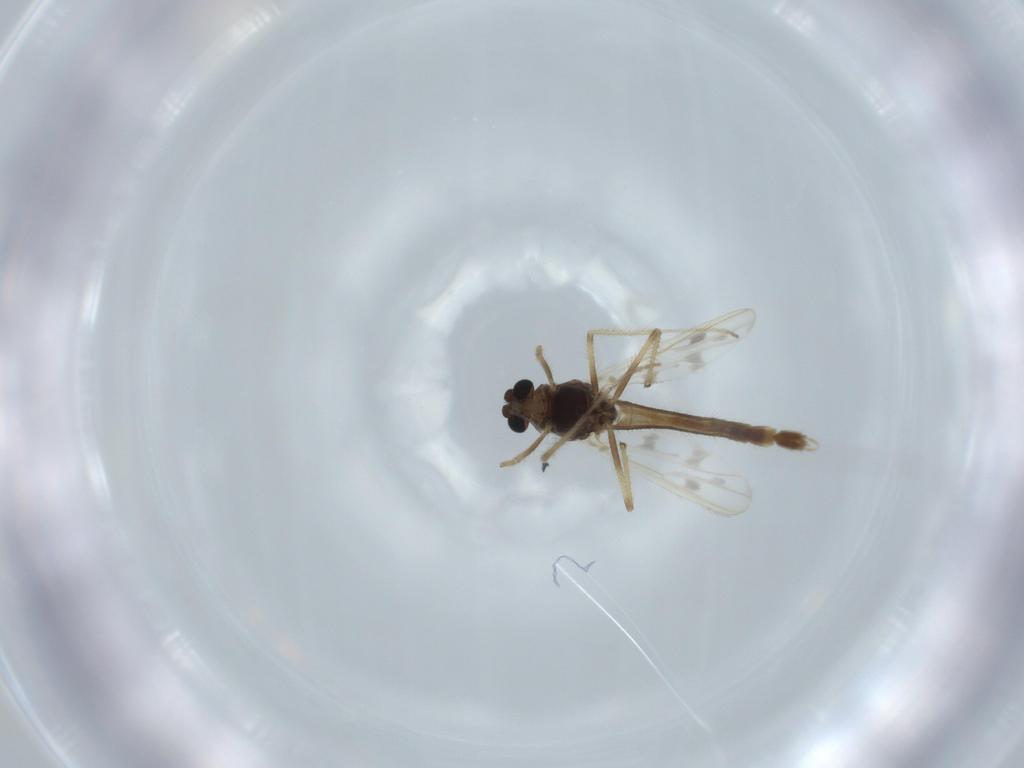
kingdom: Animalia
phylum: Arthropoda
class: Insecta
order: Diptera
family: Chironomidae
